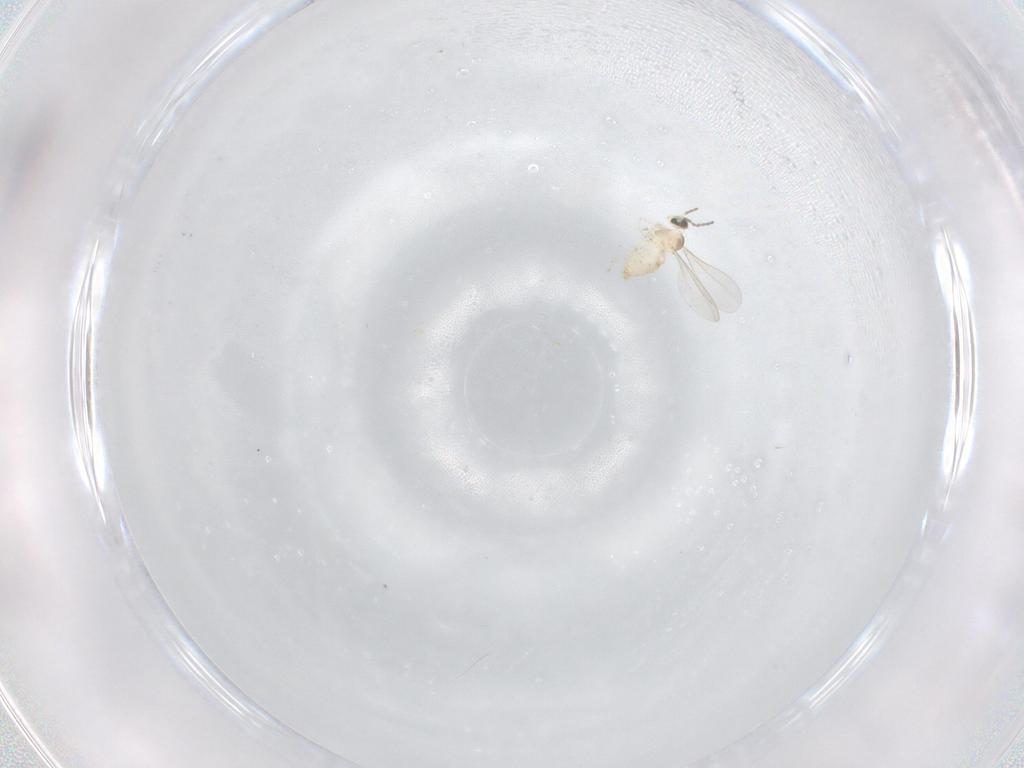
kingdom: Animalia
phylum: Arthropoda
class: Insecta
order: Diptera
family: Cecidomyiidae
